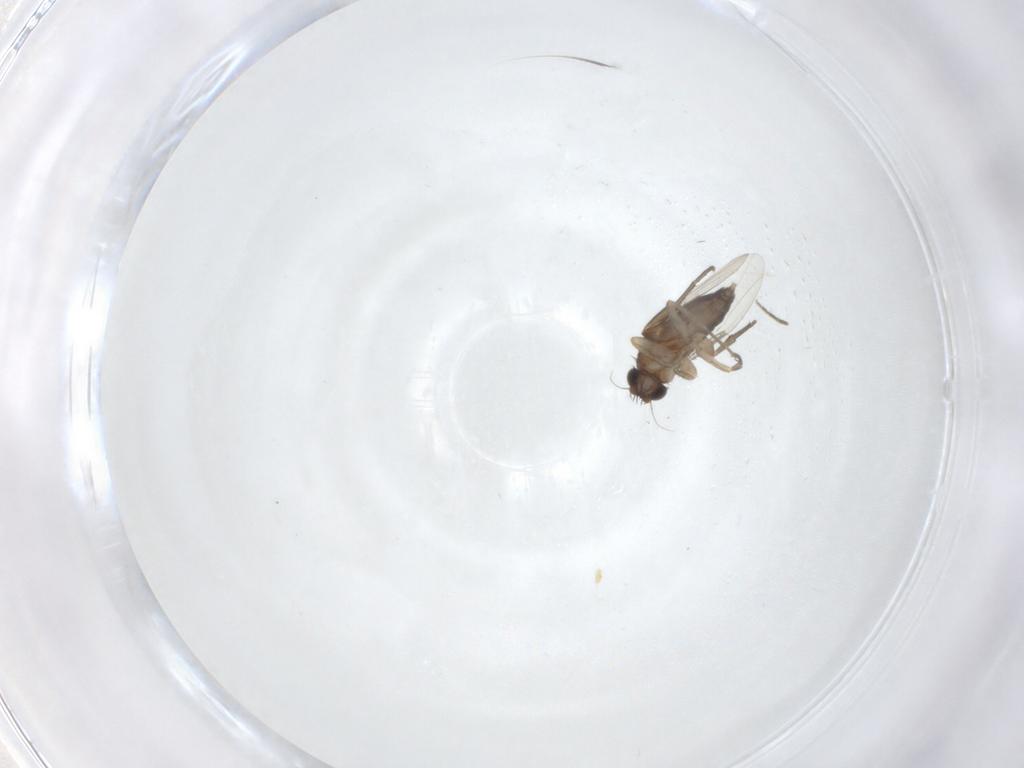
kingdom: Animalia
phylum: Arthropoda
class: Insecta
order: Diptera
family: Phoridae
